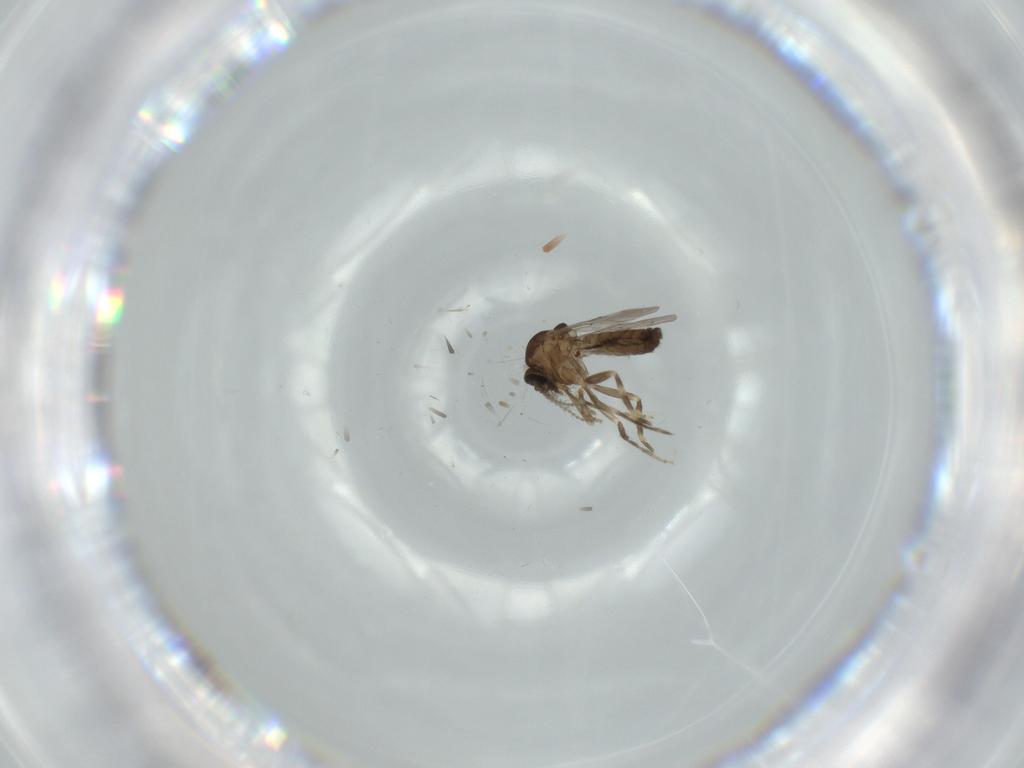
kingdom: Animalia
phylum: Arthropoda
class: Insecta
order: Diptera
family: Ceratopogonidae
